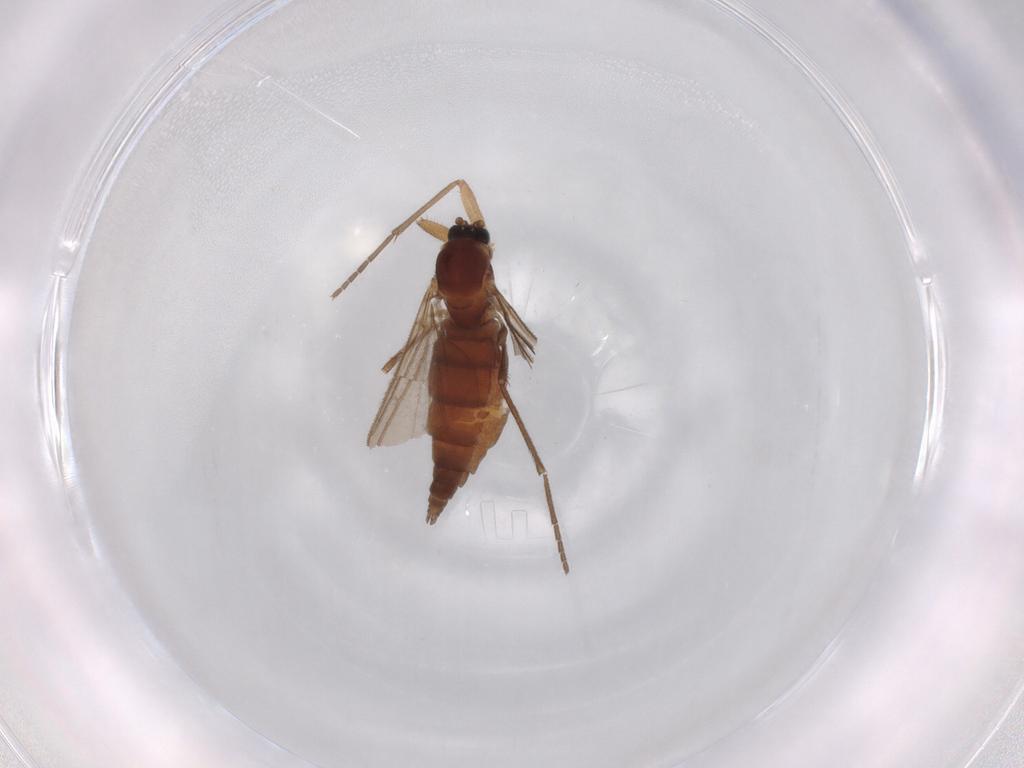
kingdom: Animalia
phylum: Arthropoda
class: Insecta
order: Diptera
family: Cecidomyiidae
